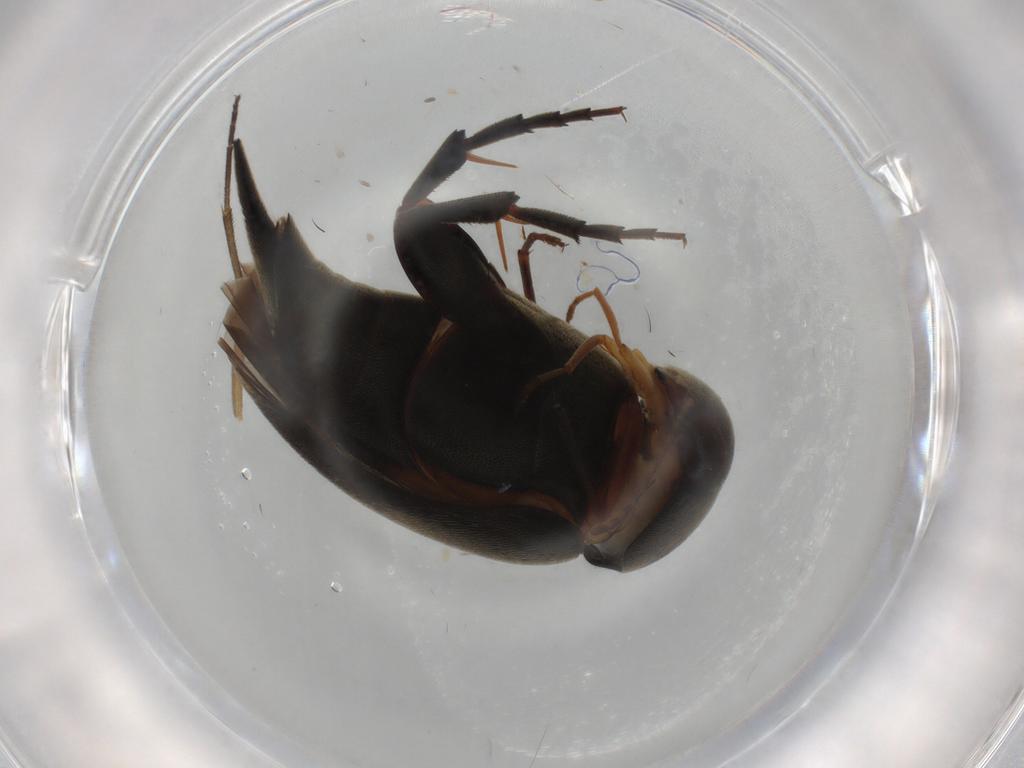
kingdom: Animalia
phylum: Arthropoda
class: Insecta
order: Coleoptera
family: Mordellidae
